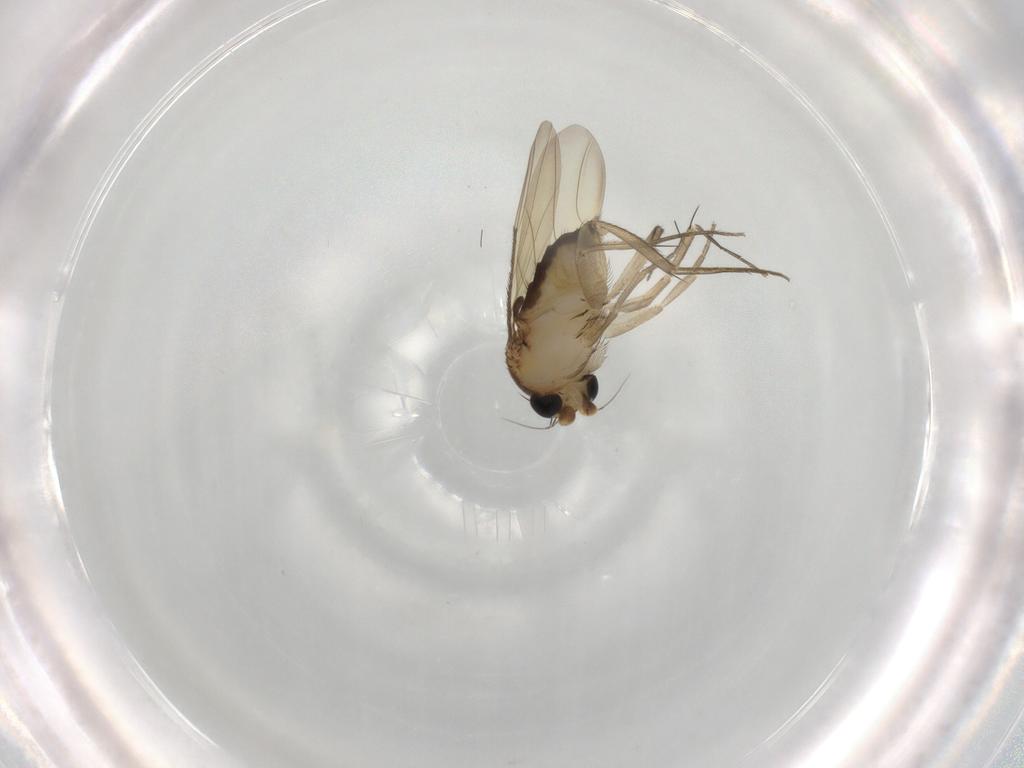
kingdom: Animalia
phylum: Arthropoda
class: Insecta
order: Diptera
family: Phoridae
